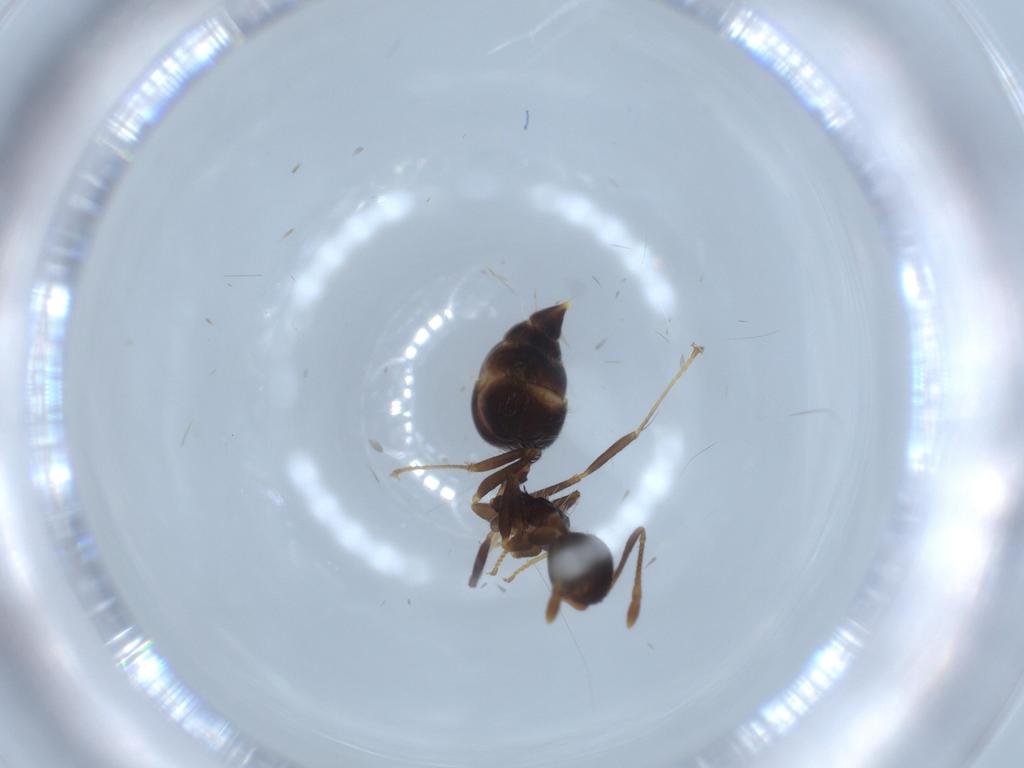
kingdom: Animalia
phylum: Arthropoda
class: Insecta
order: Hymenoptera
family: Formicidae
